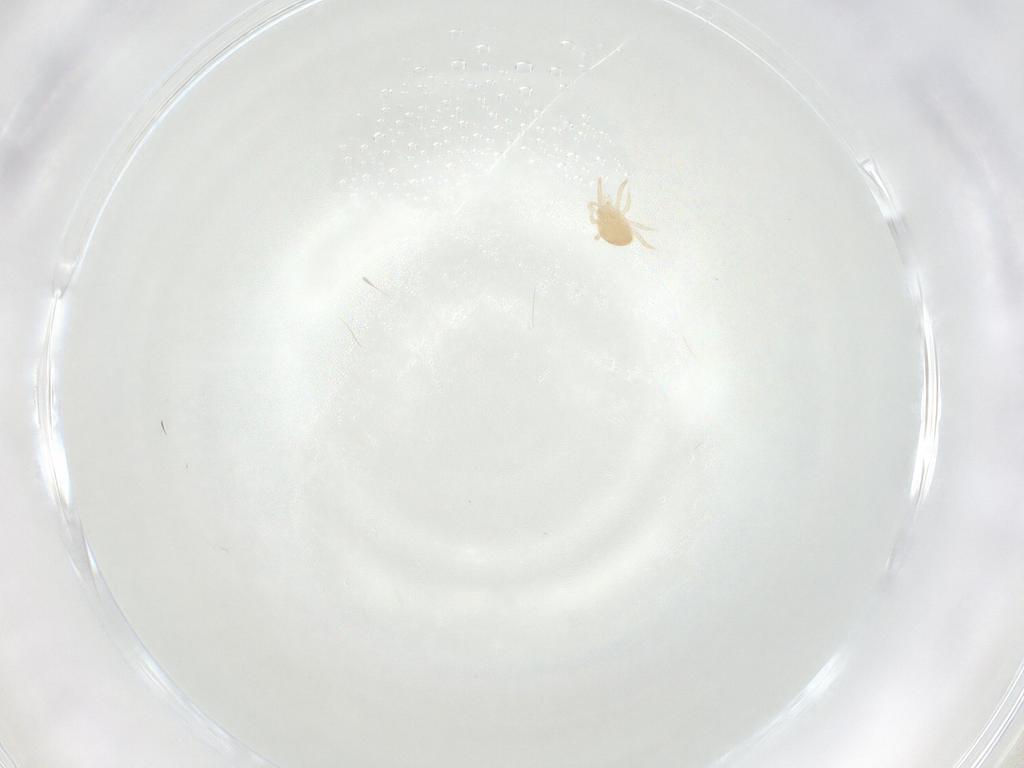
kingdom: Animalia
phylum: Arthropoda
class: Arachnida
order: Mesostigmata
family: Ameroseiidae
